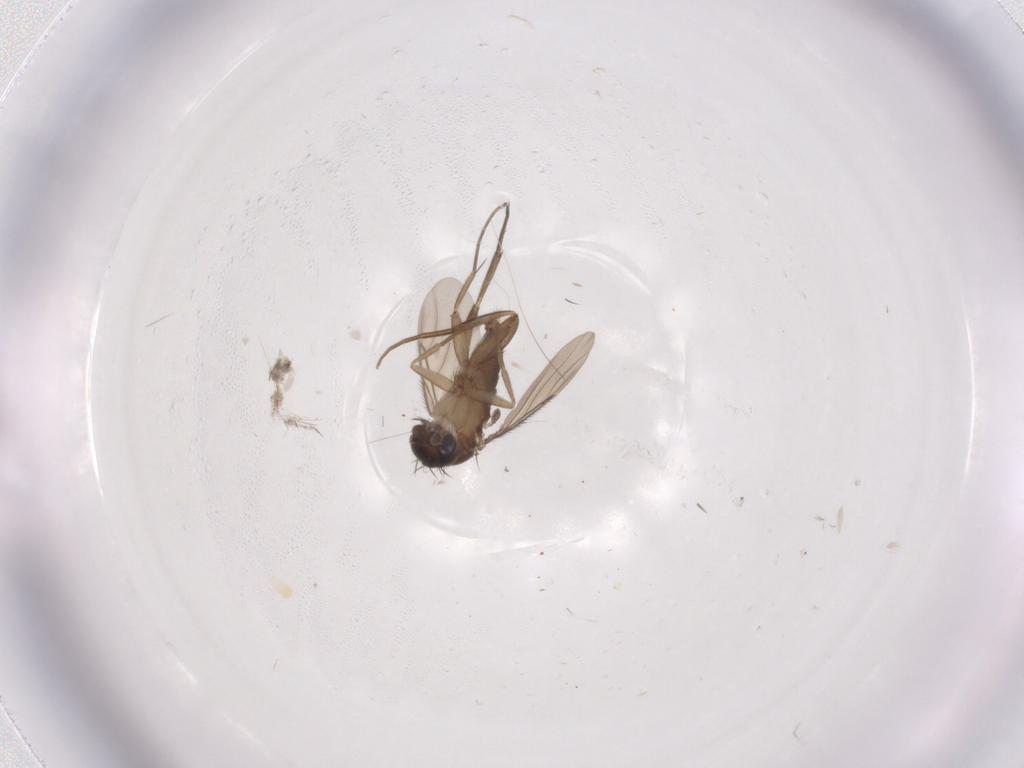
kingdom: Animalia
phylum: Arthropoda
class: Insecta
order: Diptera
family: Phoridae
